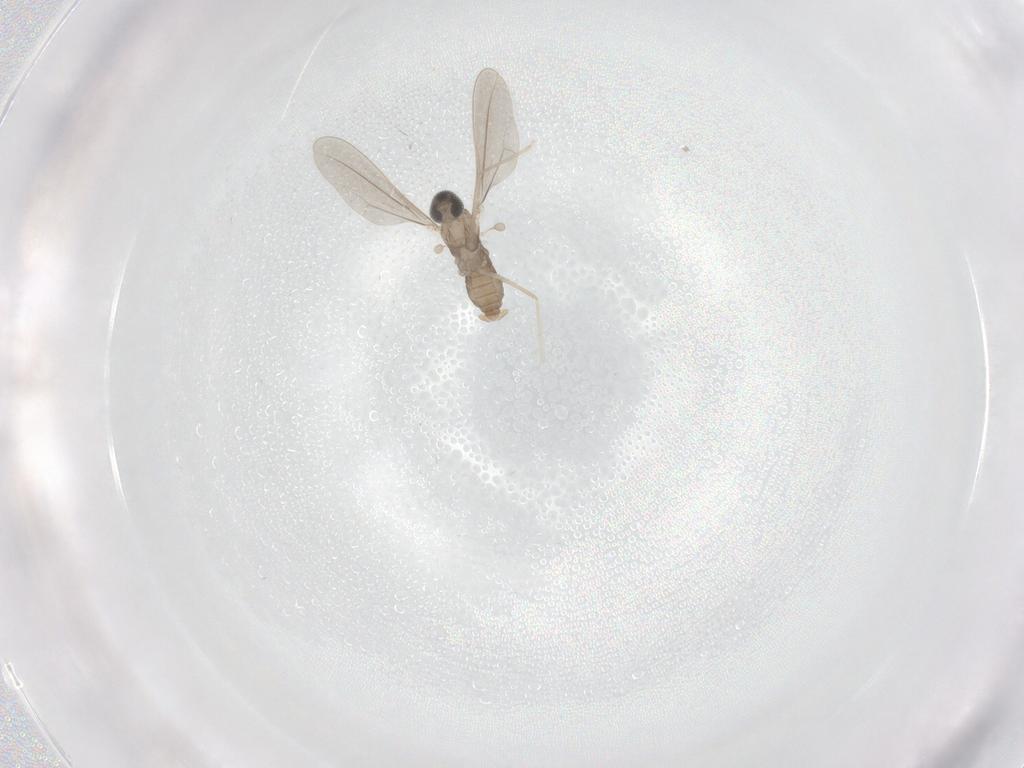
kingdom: Animalia
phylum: Arthropoda
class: Insecta
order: Diptera
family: Cecidomyiidae
